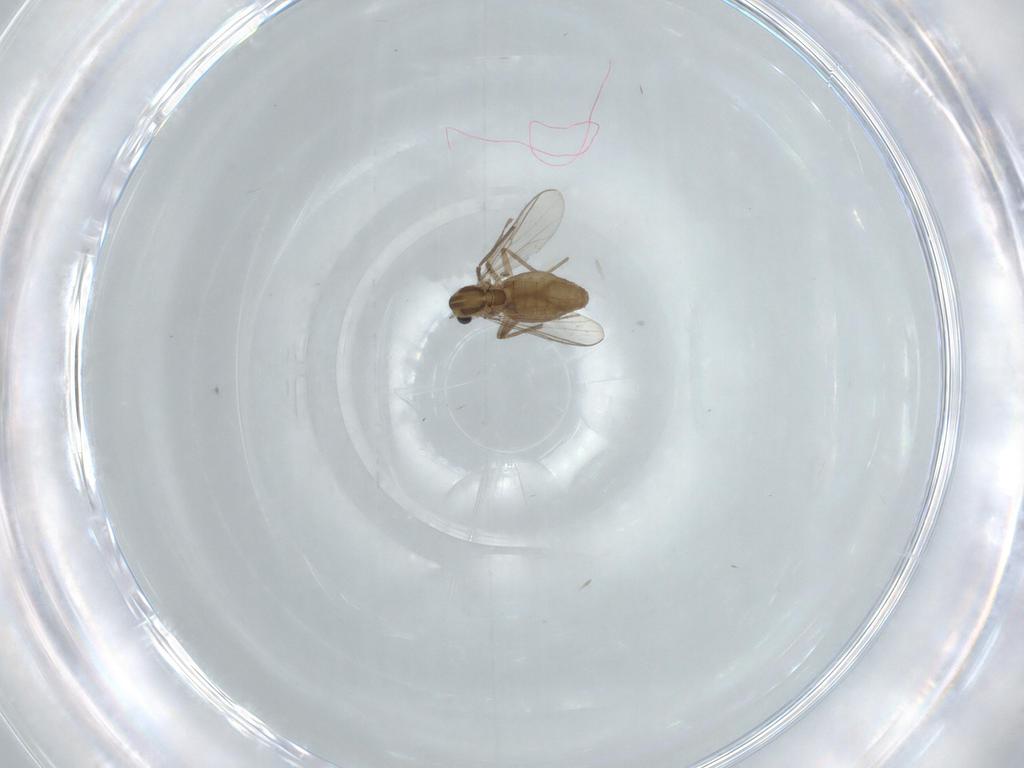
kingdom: Animalia
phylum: Arthropoda
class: Insecta
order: Diptera
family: Chironomidae
